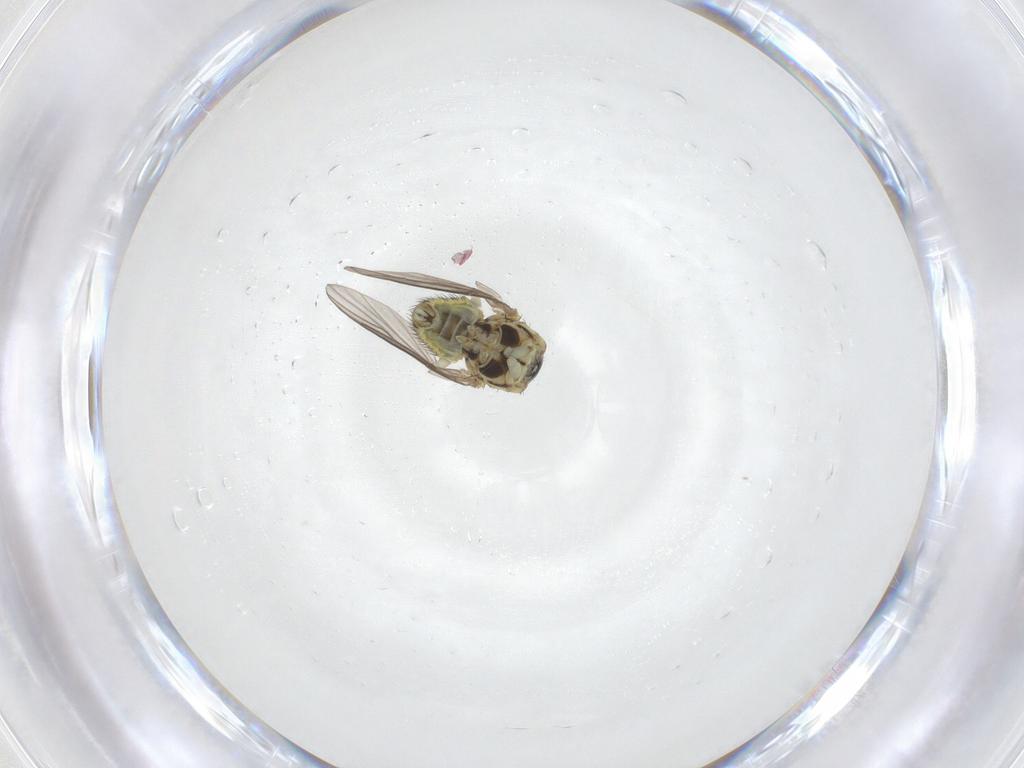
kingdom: Animalia
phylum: Arthropoda
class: Insecta
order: Diptera
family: Agromyzidae
